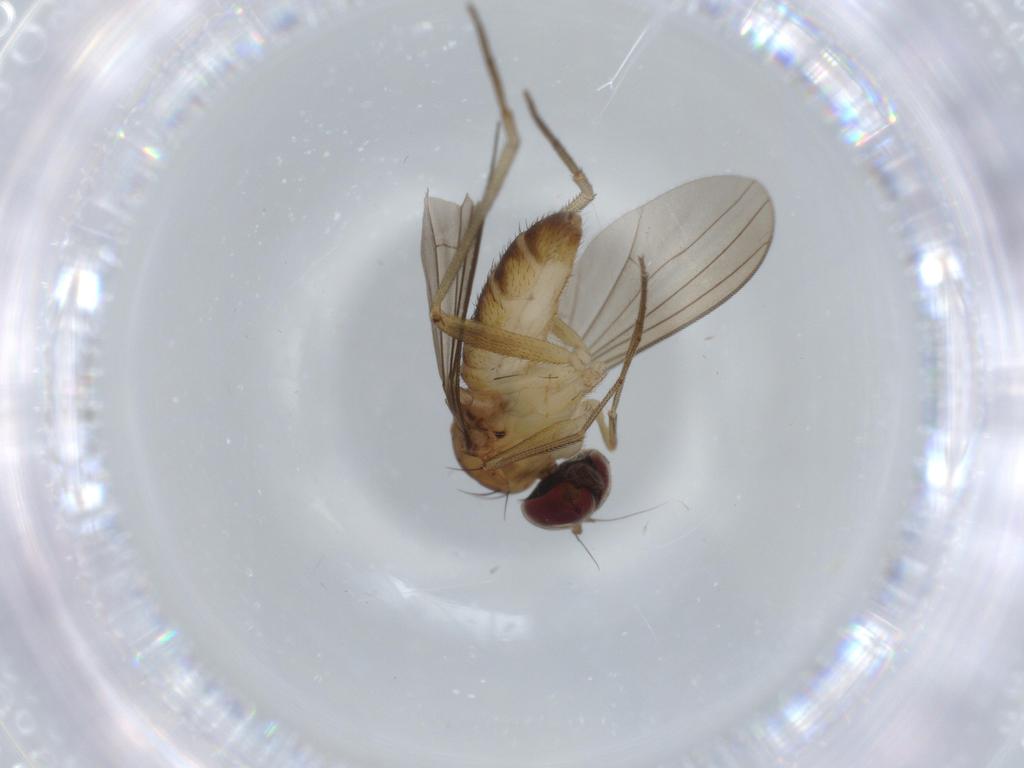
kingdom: Animalia
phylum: Arthropoda
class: Insecta
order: Diptera
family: Dolichopodidae
